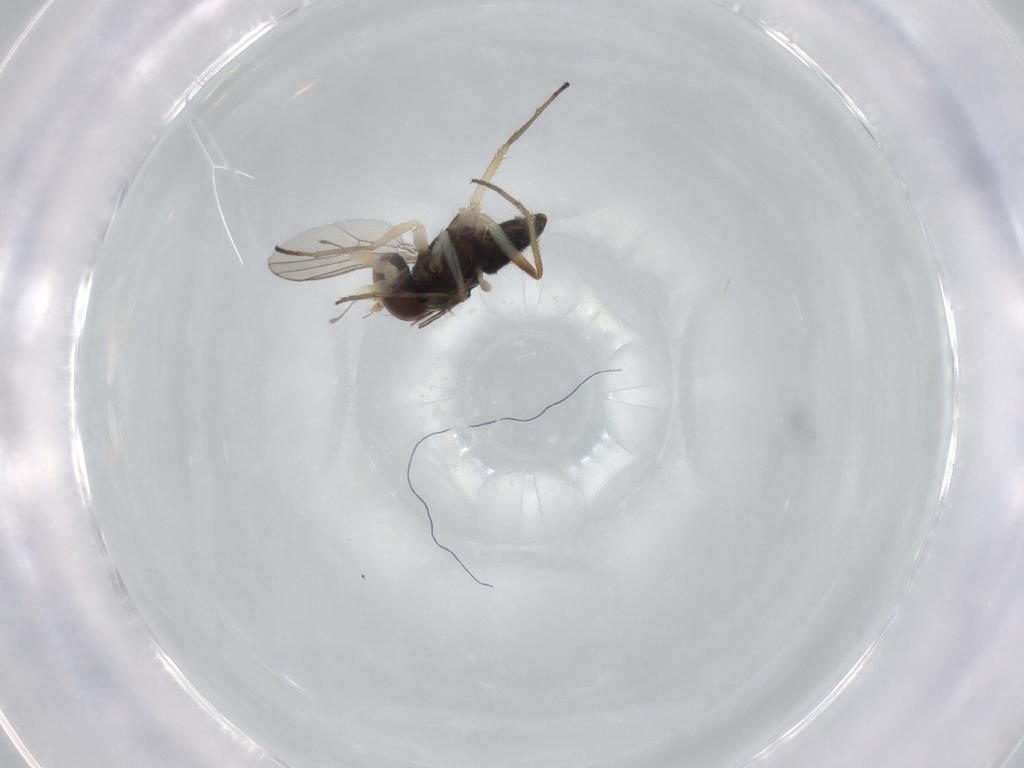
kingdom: Animalia
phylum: Arthropoda
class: Insecta
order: Diptera
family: Dolichopodidae
